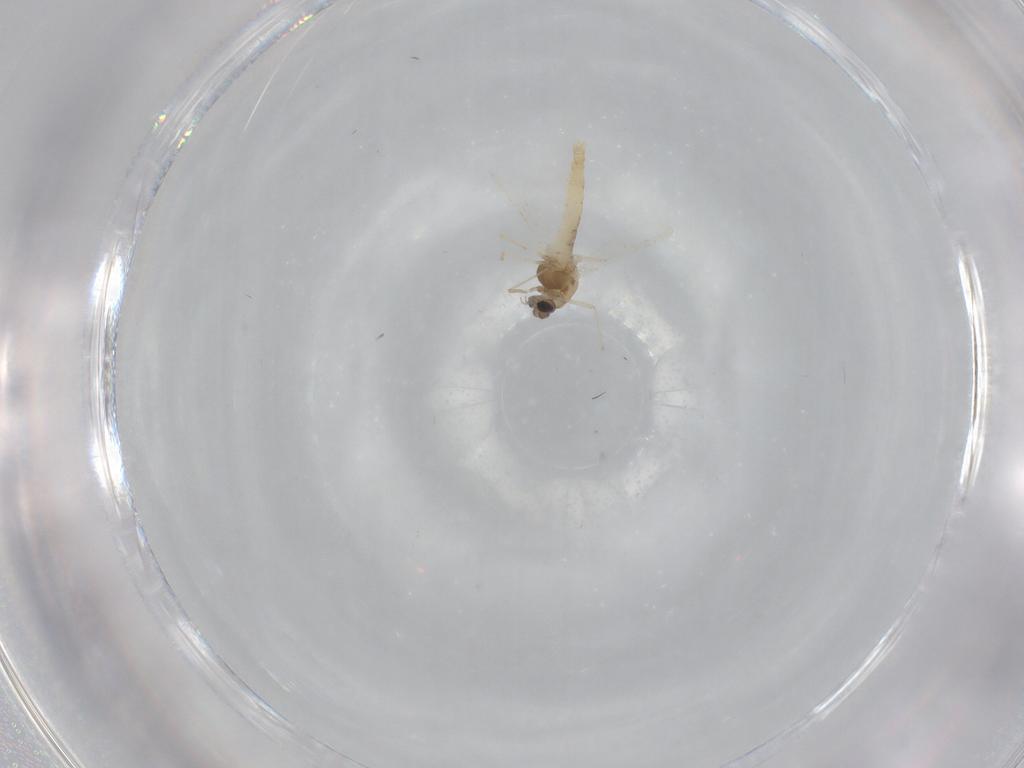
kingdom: Animalia
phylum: Arthropoda
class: Insecta
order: Diptera
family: Chironomidae
